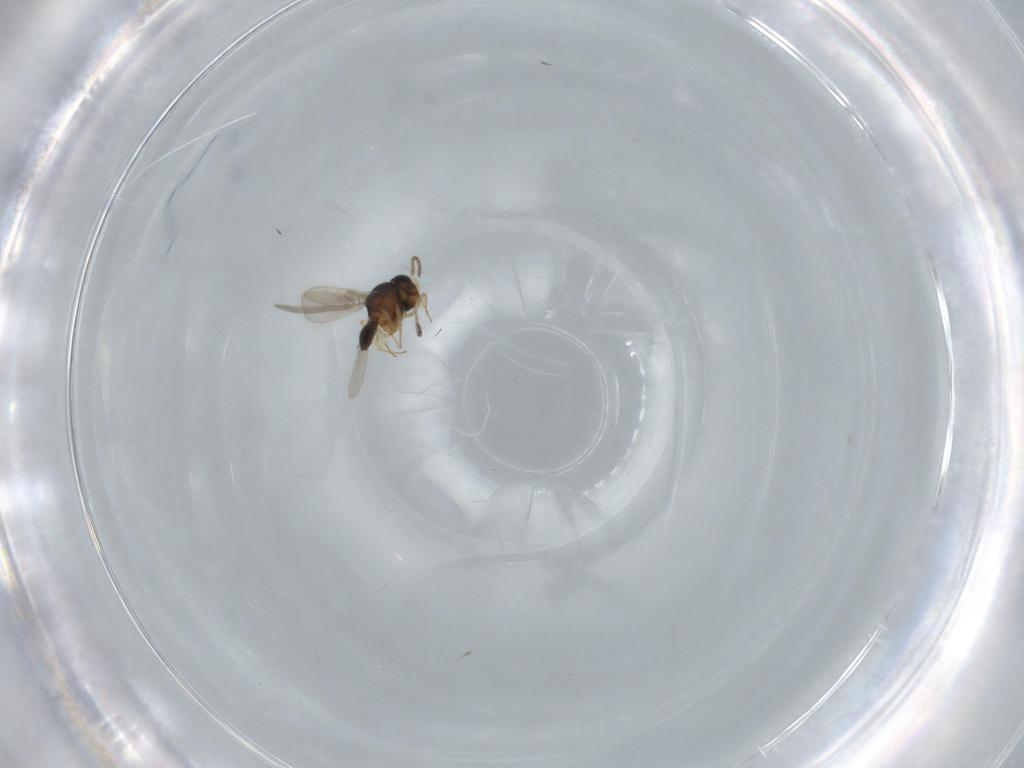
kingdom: Animalia
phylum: Arthropoda
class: Insecta
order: Hymenoptera
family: Scelionidae
